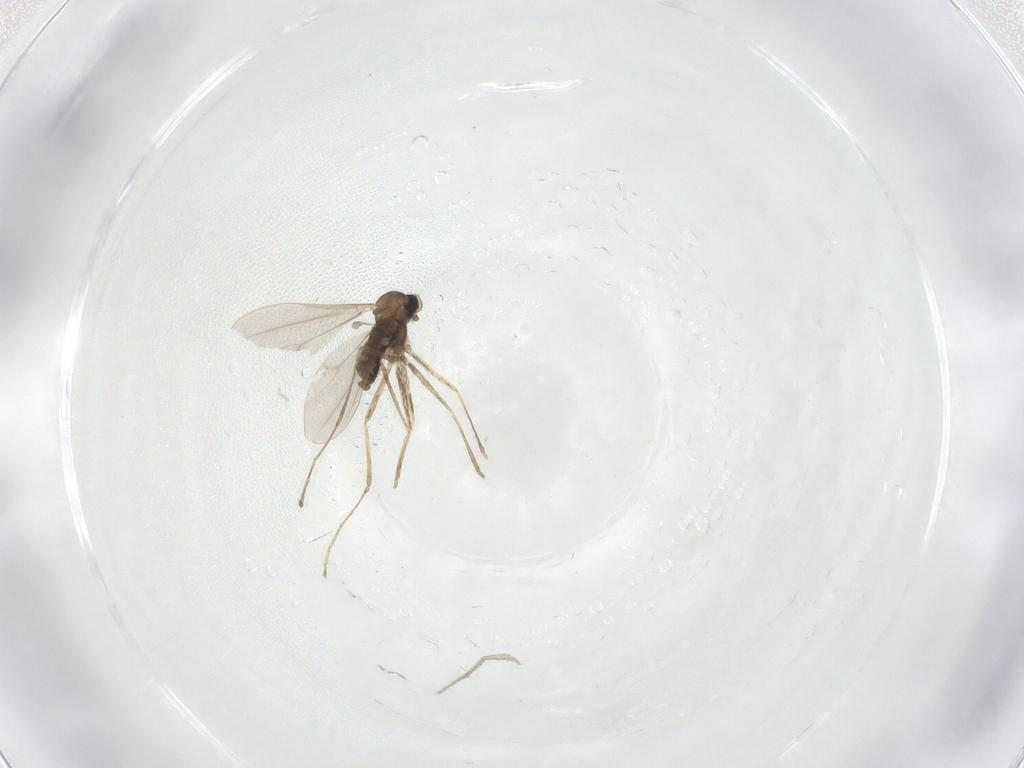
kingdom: Animalia
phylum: Arthropoda
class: Insecta
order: Diptera
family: Cecidomyiidae
